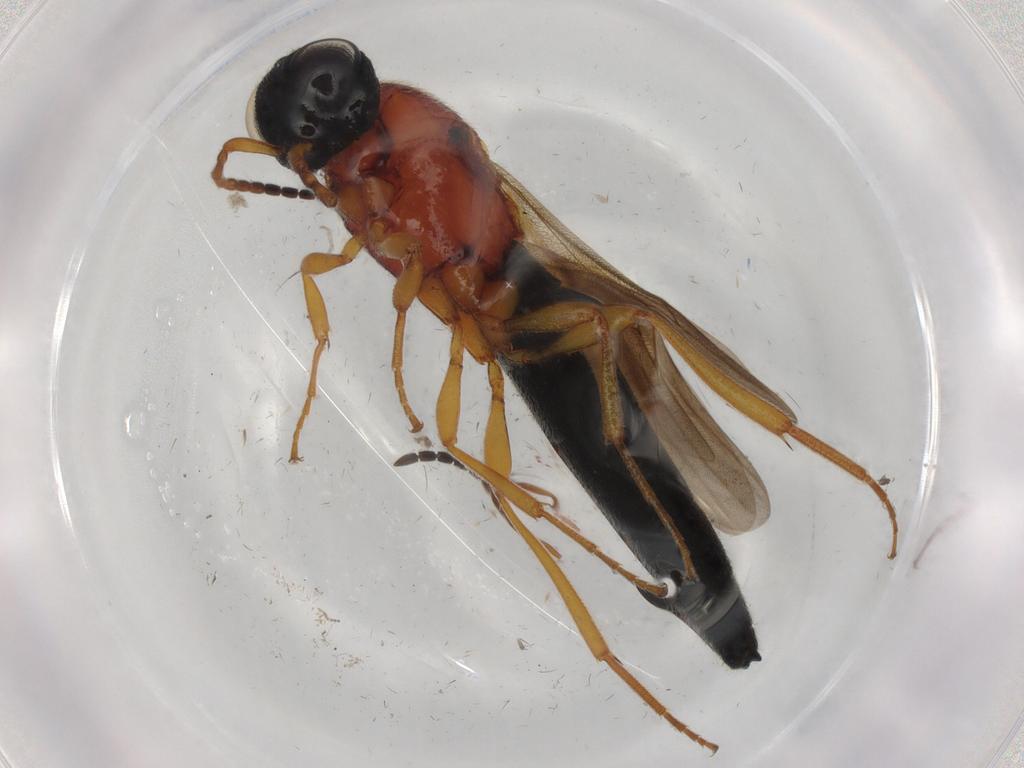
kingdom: Animalia
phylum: Arthropoda
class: Insecta
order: Hymenoptera
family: Formicidae
